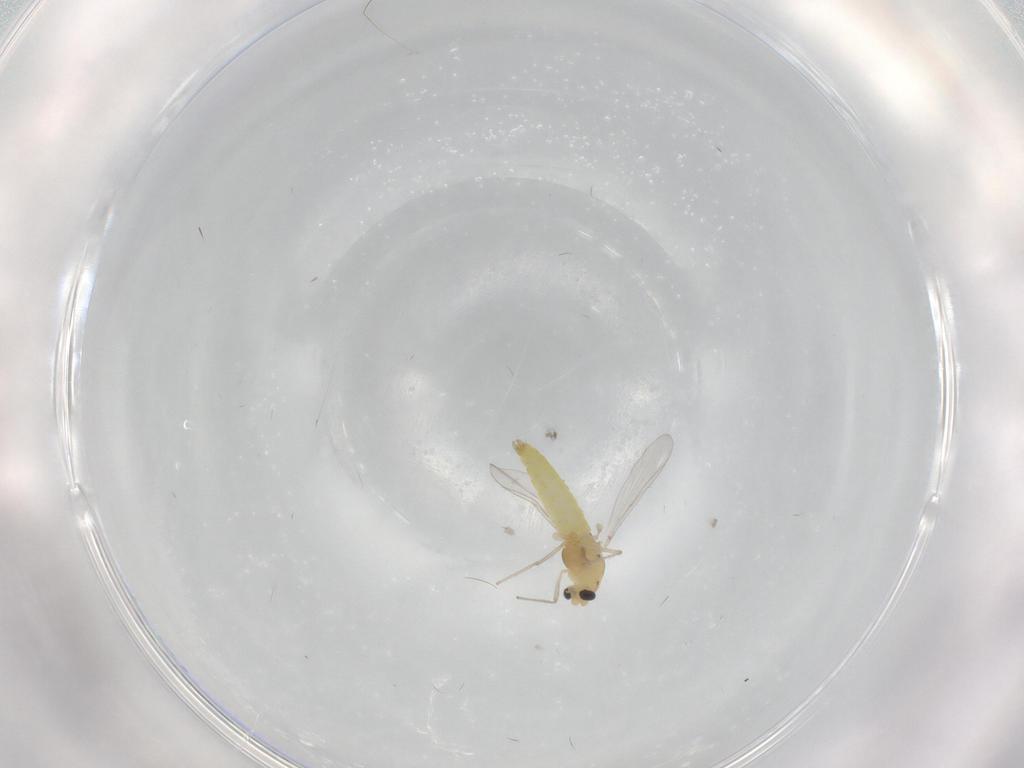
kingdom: Animalia
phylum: Arthropoda
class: Insecta
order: Diptera
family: Chironomidae
